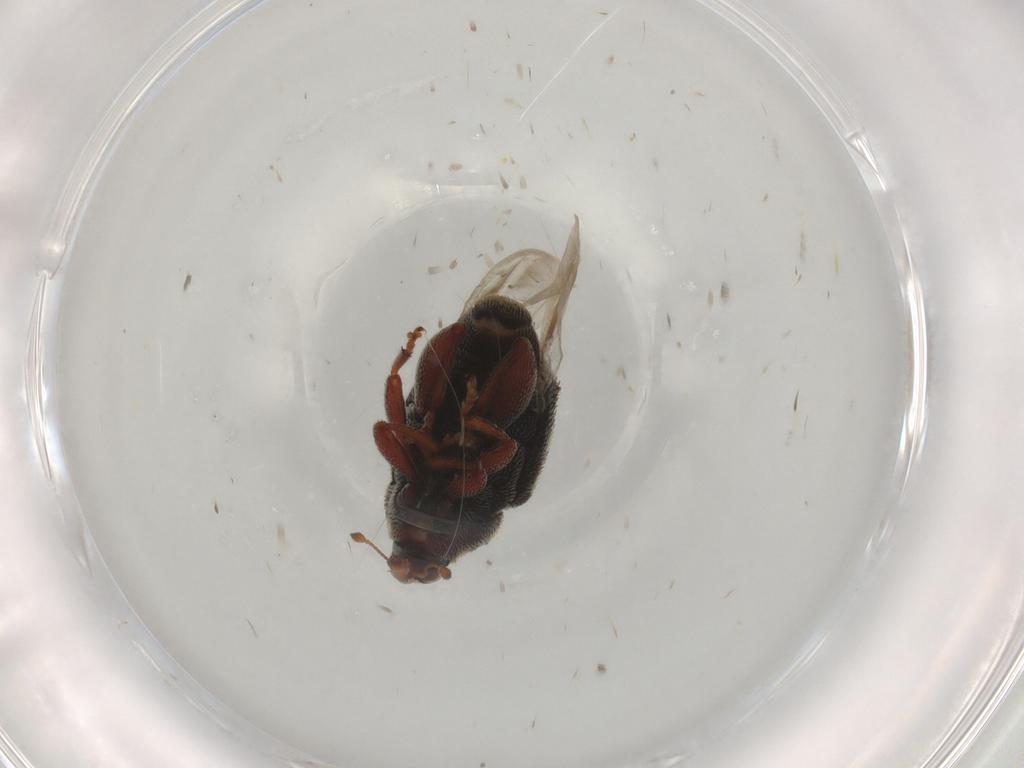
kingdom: Animalia
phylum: Arthropoda
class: Insecta
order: Coleoptera
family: Curculionidae
